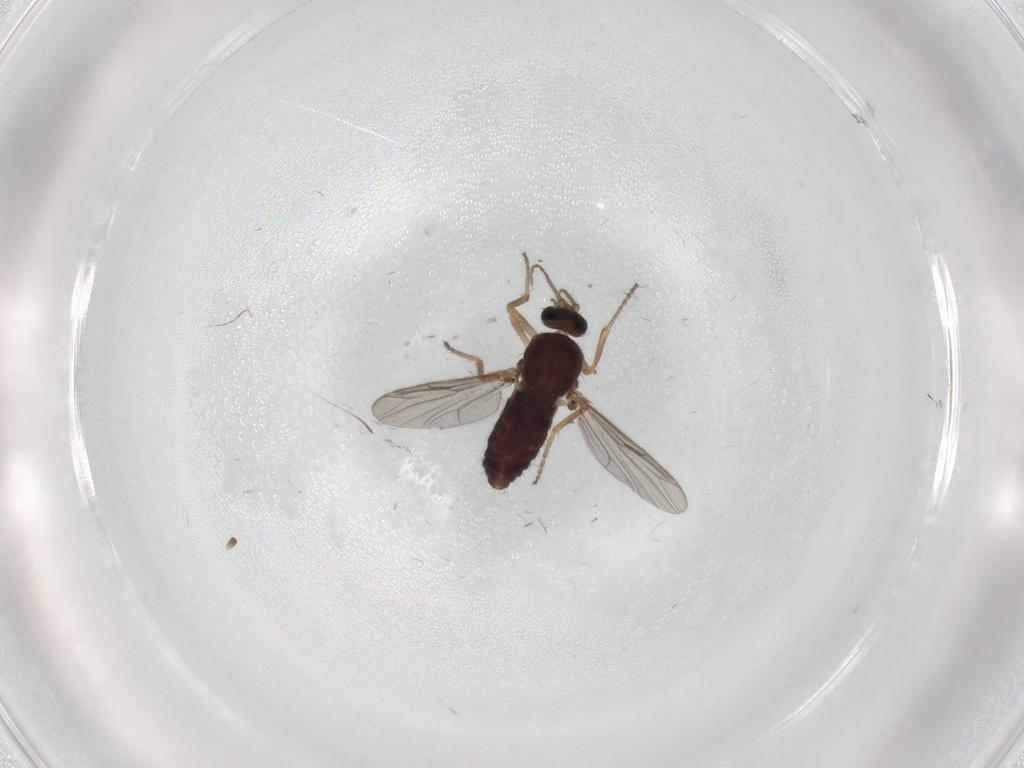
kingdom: Animalia
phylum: Arthropoda
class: Insecta
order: Diptera
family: Ceratopogonidae
